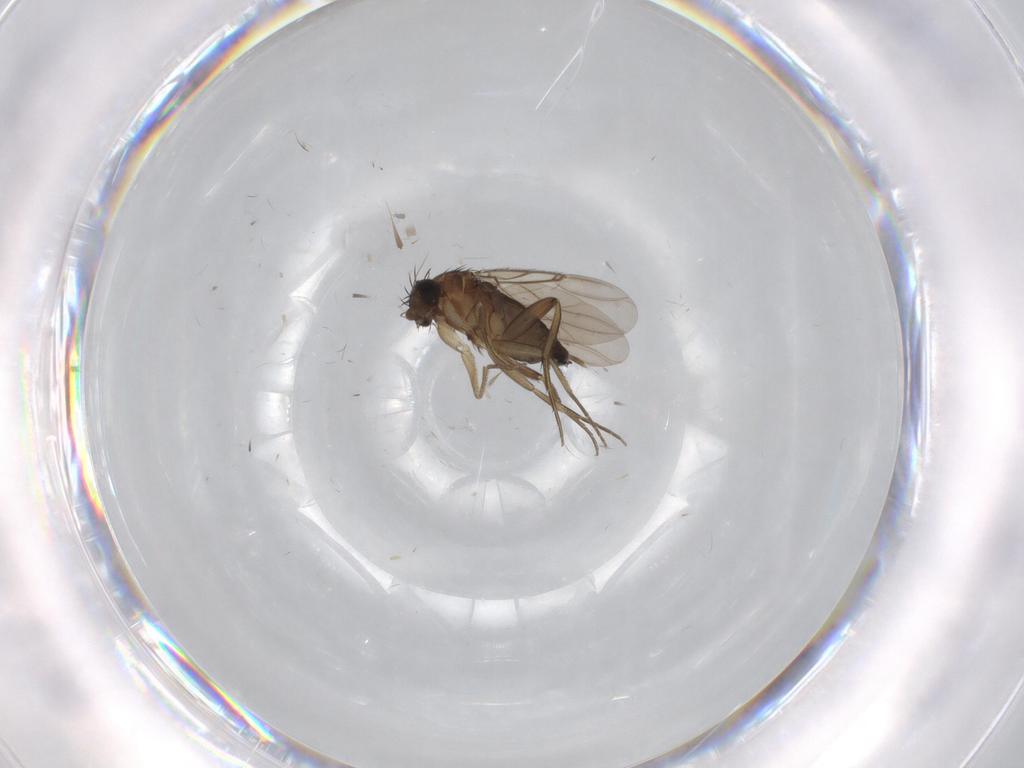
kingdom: Animalia
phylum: Arthropoda
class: Insecta
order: Diptera
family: Phoridae
